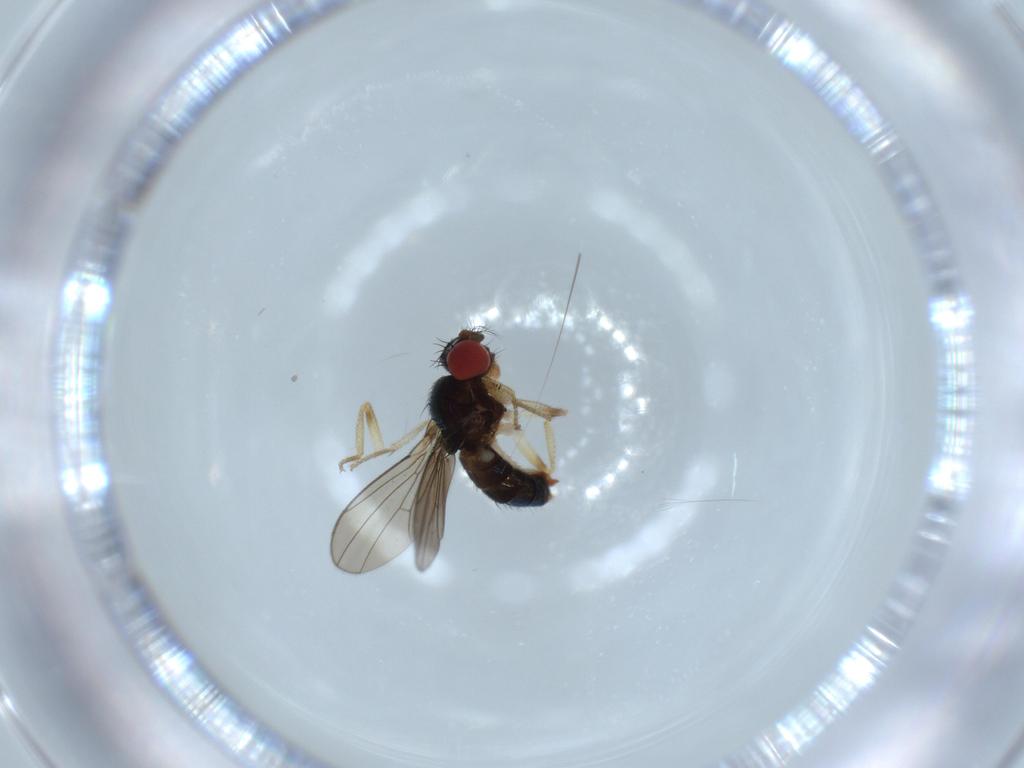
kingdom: Animalia
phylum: Arthropoda
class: Insecta
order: Diptera
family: Drosophilidae
